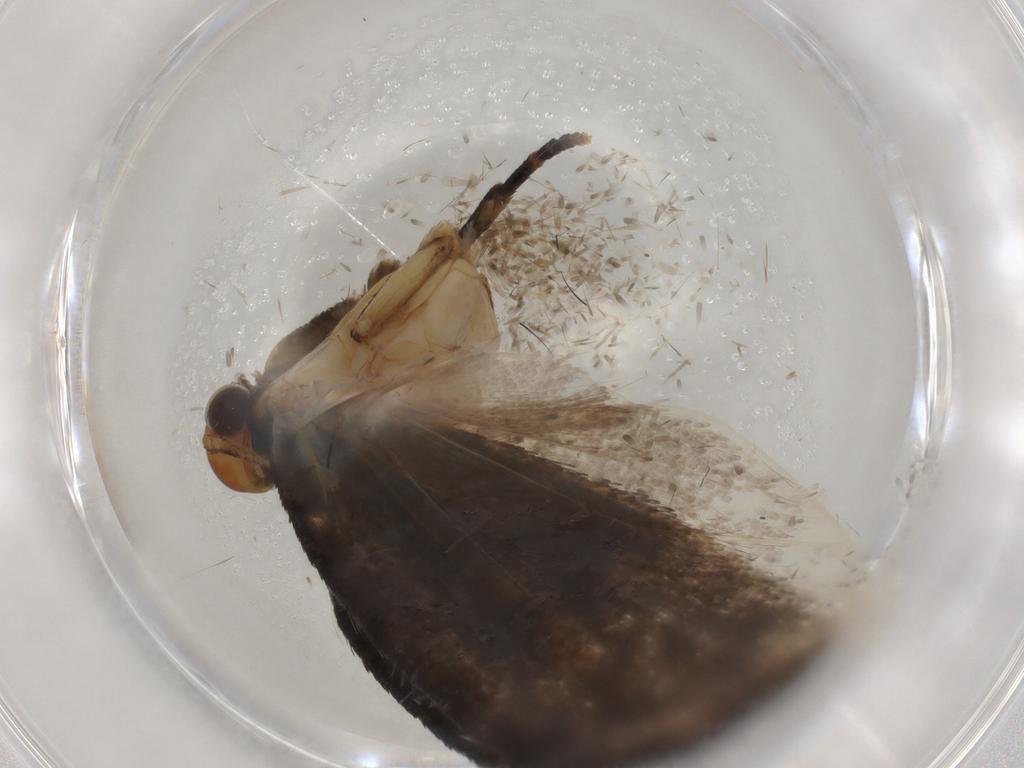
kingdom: Animalia
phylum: Arthropoda
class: Insecta
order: Lepidoptera
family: Oecophoridae
